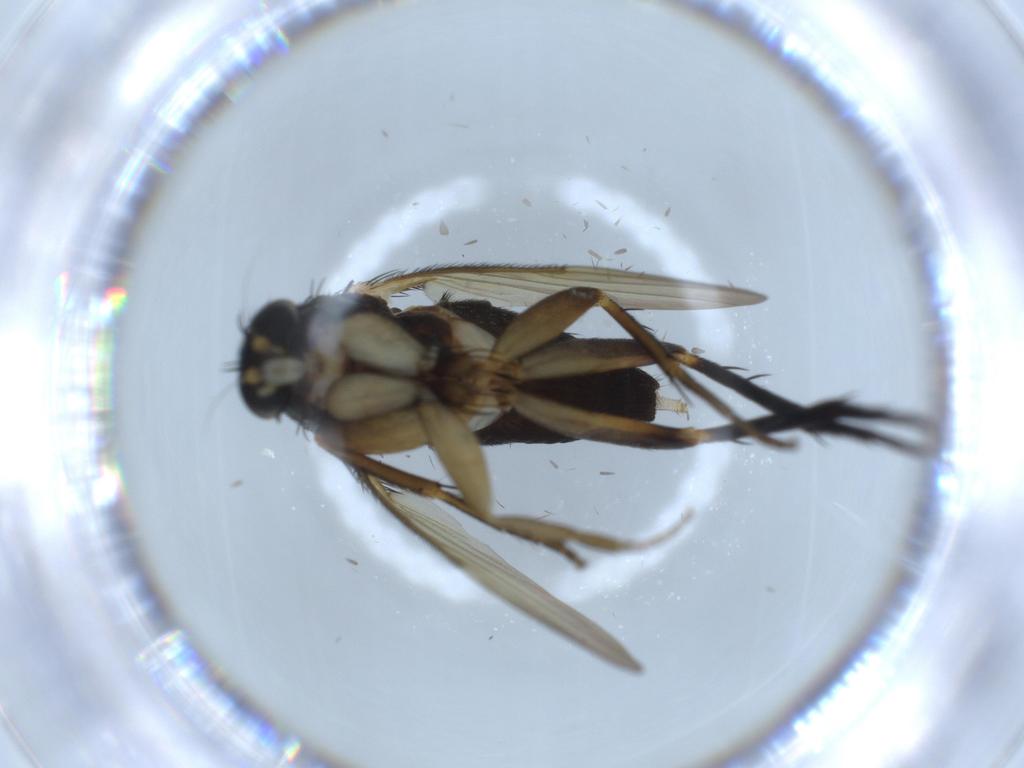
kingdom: Animalia
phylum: Arthropoda
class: Insecta
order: Diptera
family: Phoridae
